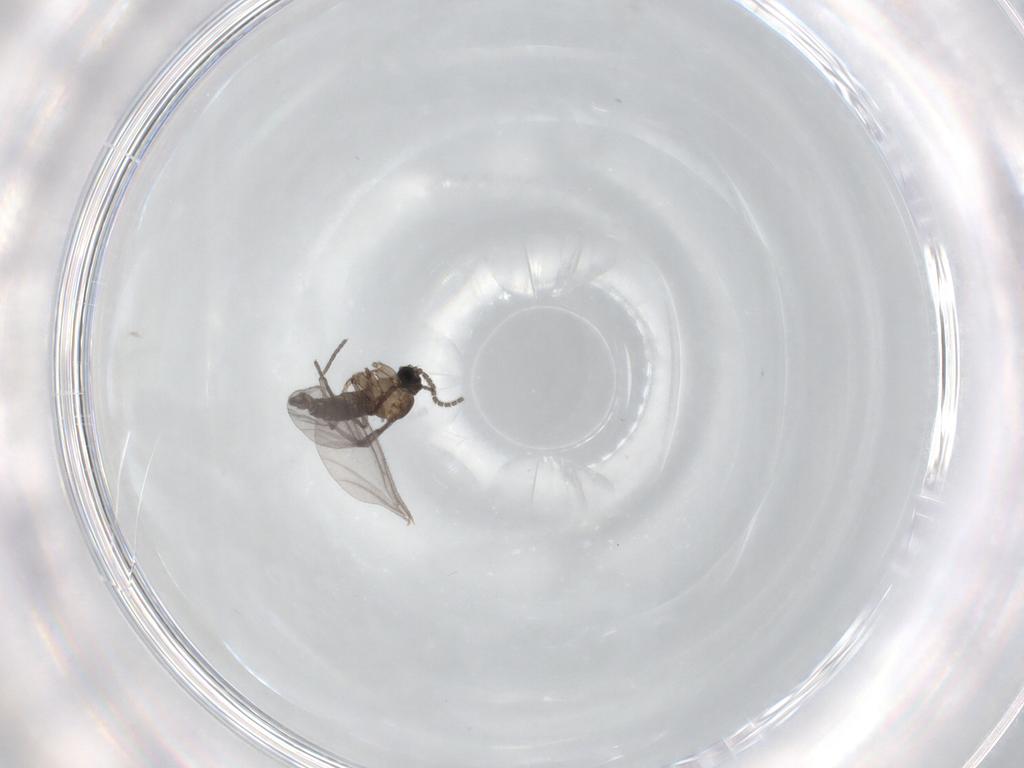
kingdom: Animalia
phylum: Arthropoda
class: Insecta
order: Diptera
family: Sciaridae
